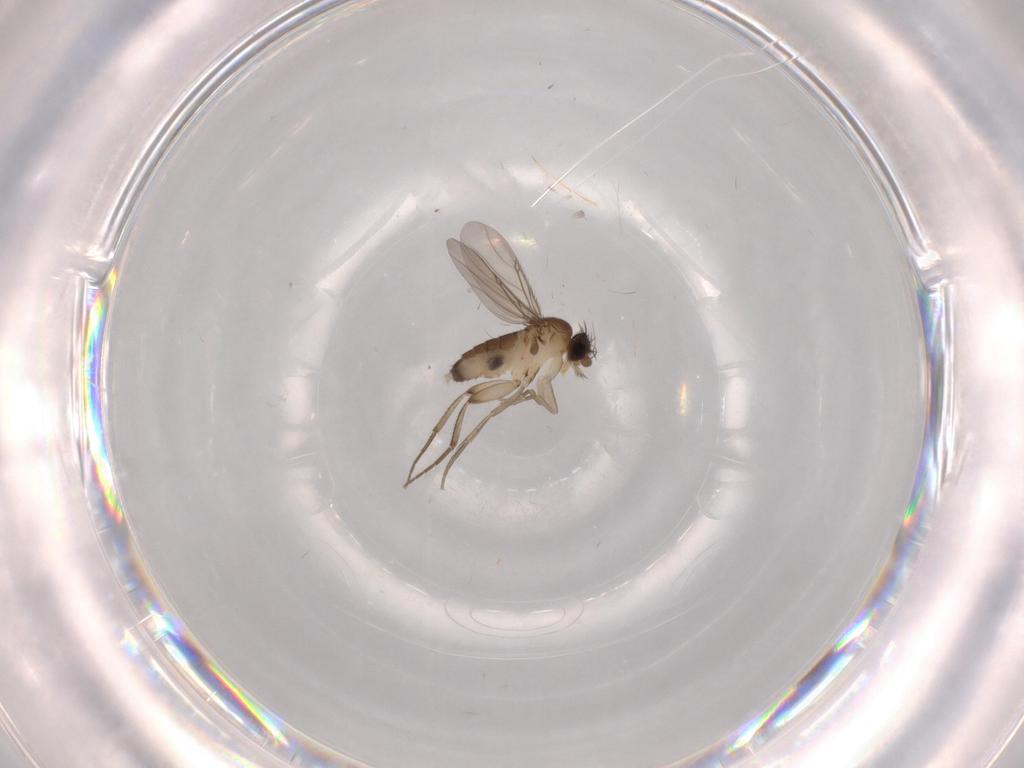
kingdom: Animalia
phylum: Arthropoda
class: Insecta
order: Diptera
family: Phoridae
